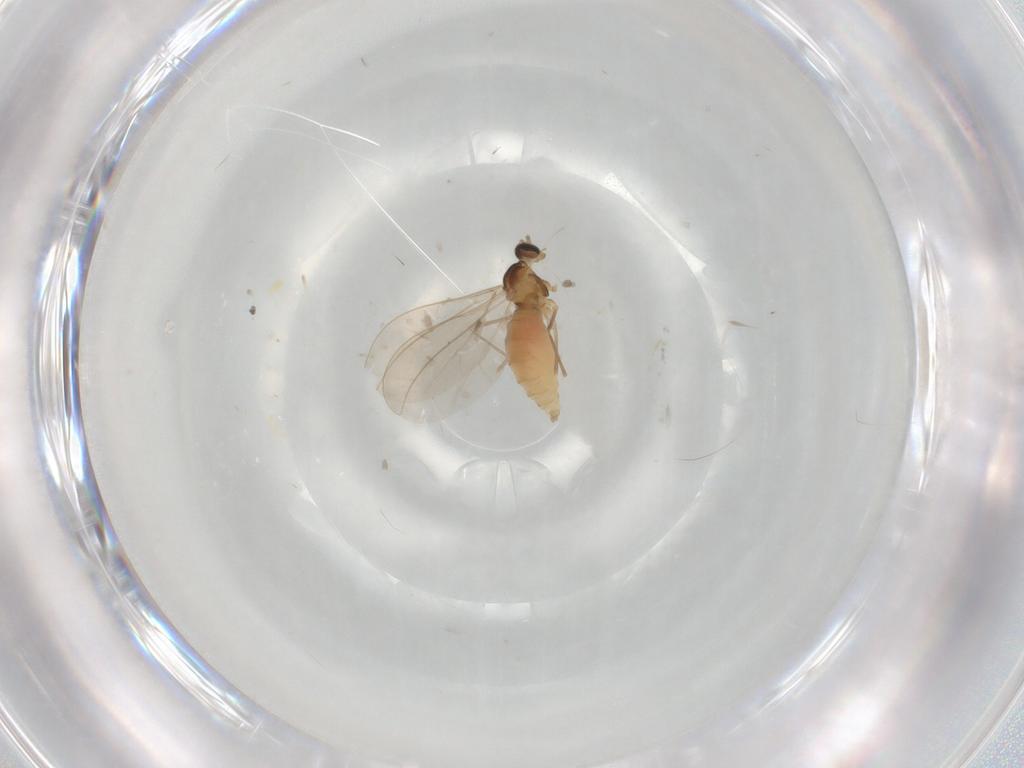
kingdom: Animalia
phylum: Arthropoda
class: Insecta
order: Diptera
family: Cecidomyiidae
